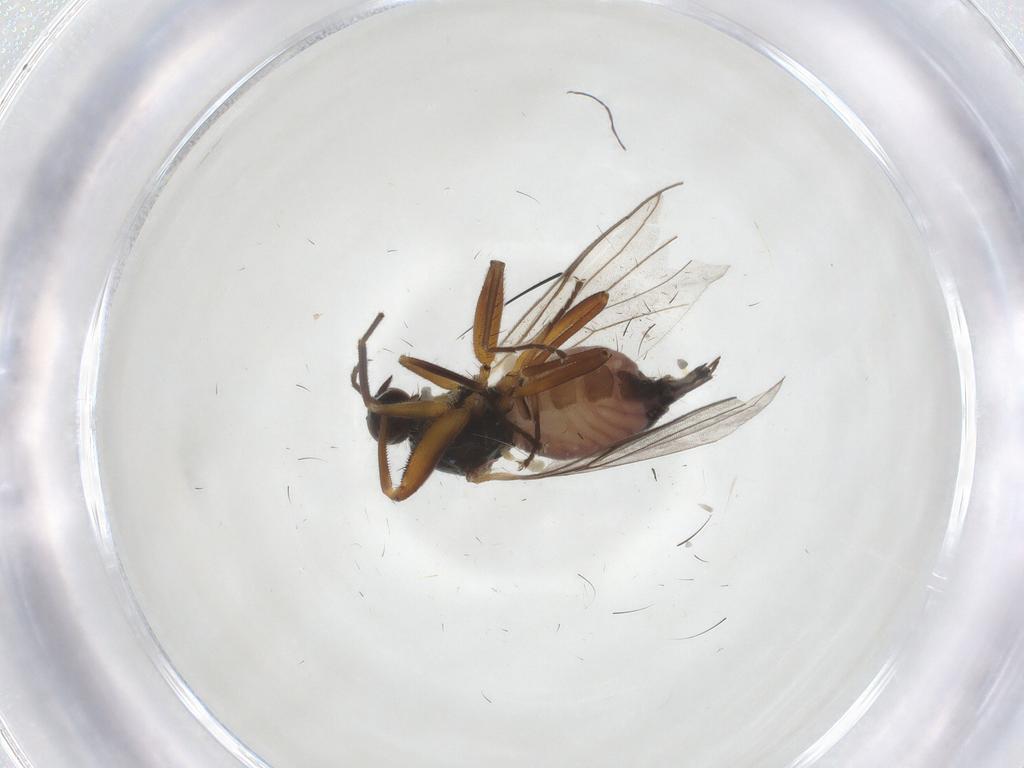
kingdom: Animalia
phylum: Arthropoda
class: Insecta
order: Diptera
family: Hybotidae
